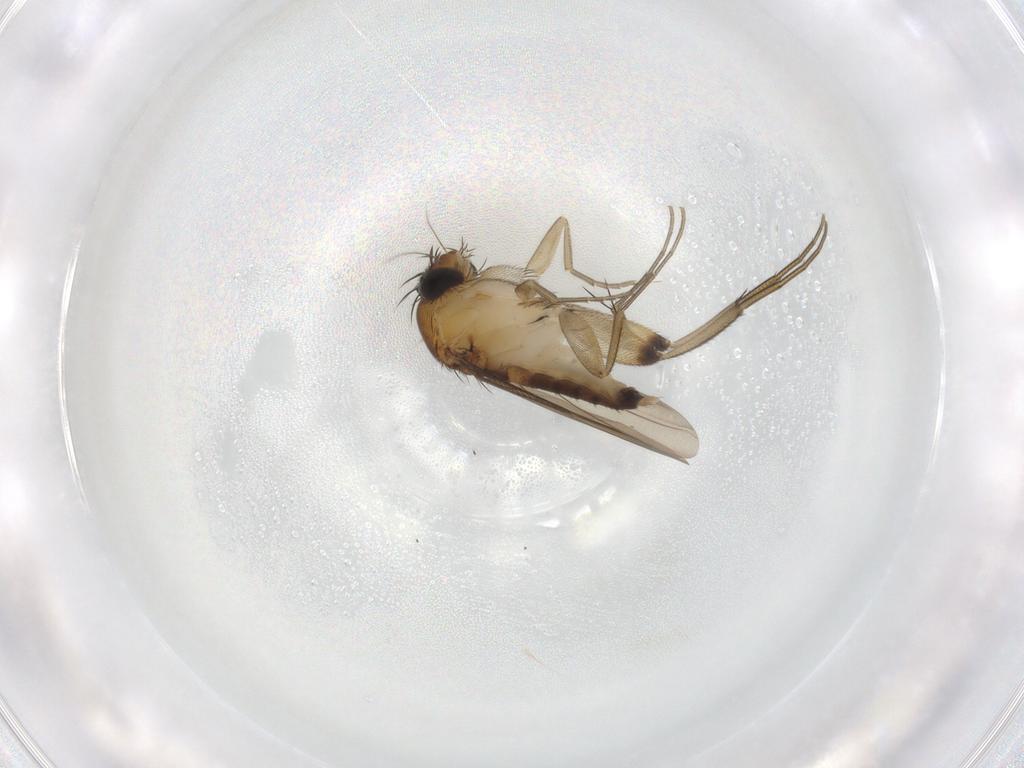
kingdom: Animalia
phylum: Arthropoda
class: Insecta
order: Diptera
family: Phoridae
